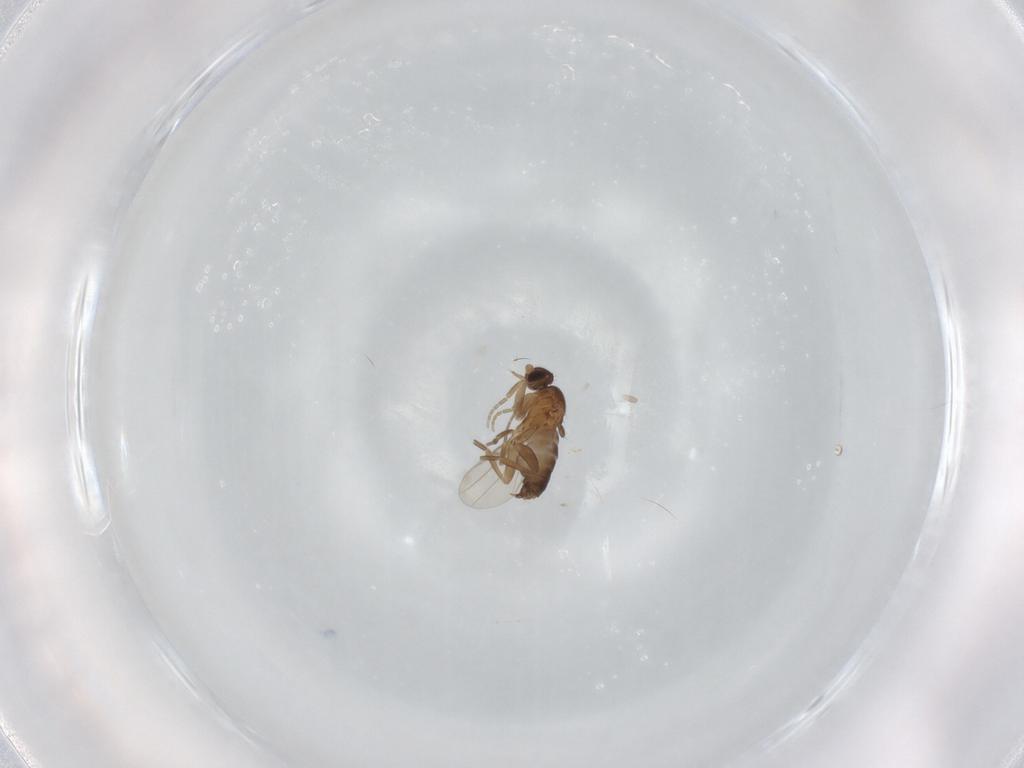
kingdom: Animalia
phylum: Arthropoda
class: Insecta
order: Diptera
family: Phoridae
